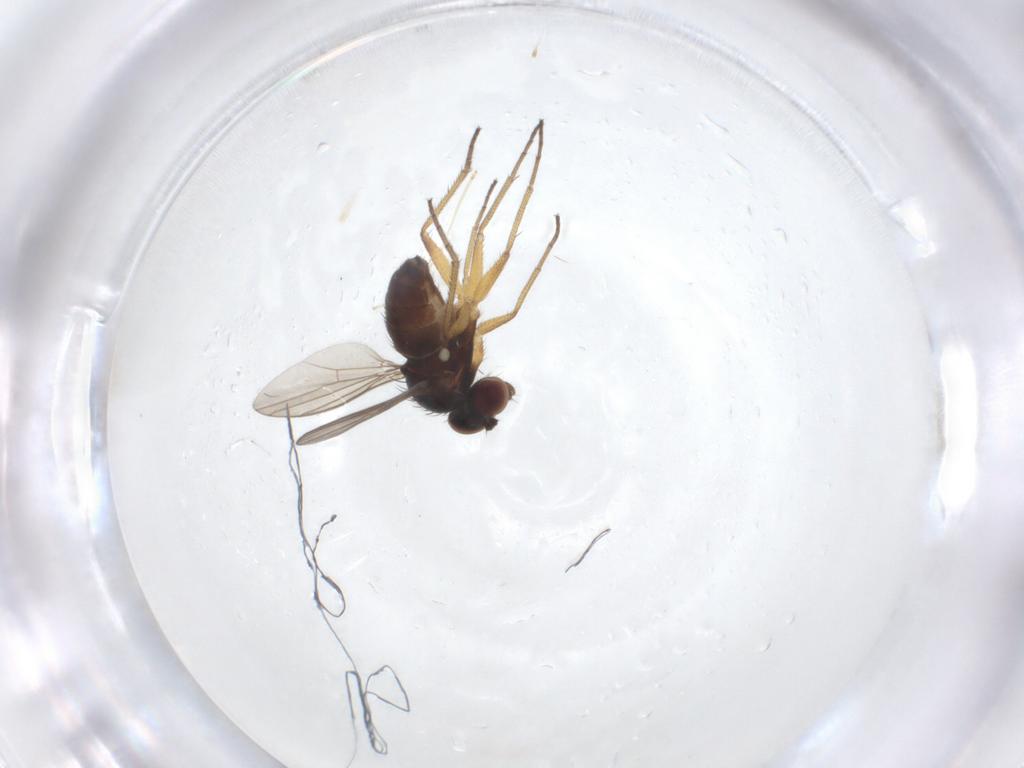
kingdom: Animalia
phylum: Arthropoda
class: Insecta
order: Diptera
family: Dolichopodidae
